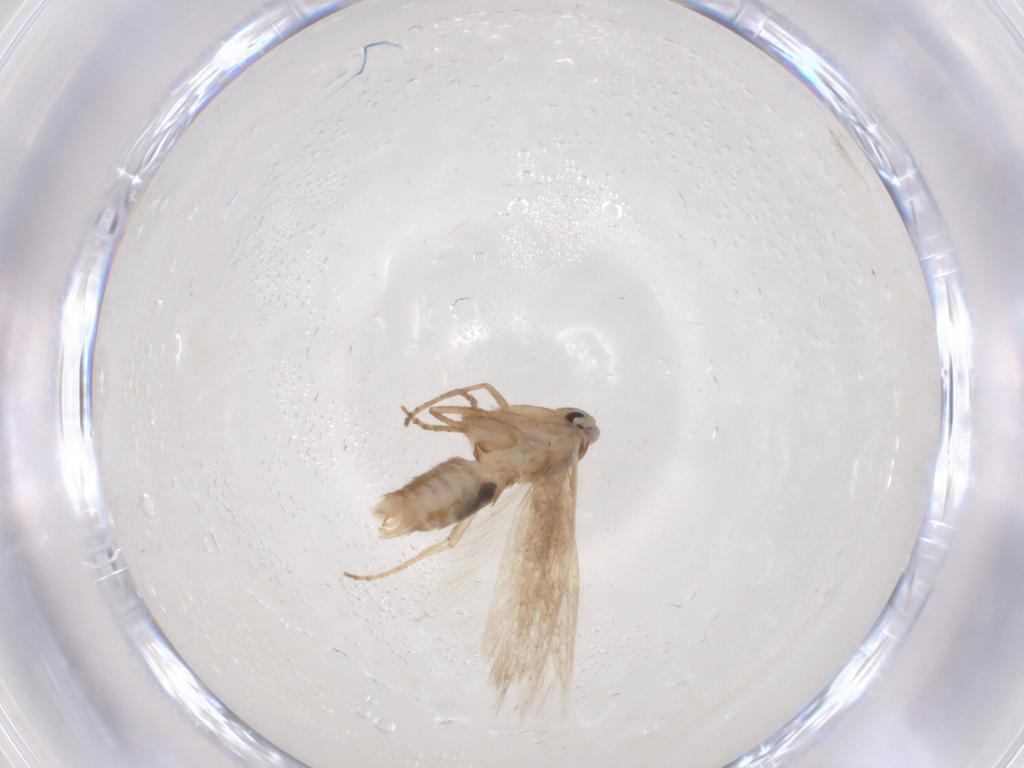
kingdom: Animalia
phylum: Arthropoda
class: Insecta
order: Lepidoptera
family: Bucculatricidae
